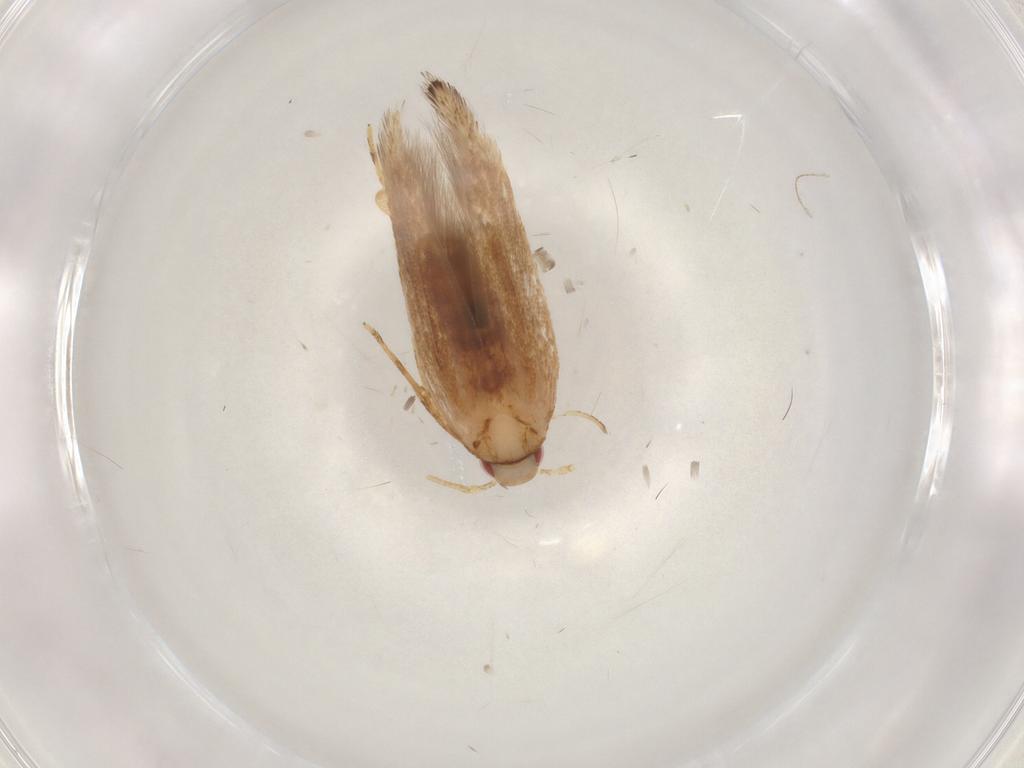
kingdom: Animalia
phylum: Arthropoda
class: Insecta
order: Lepidoptera
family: Cosmopterigidae
